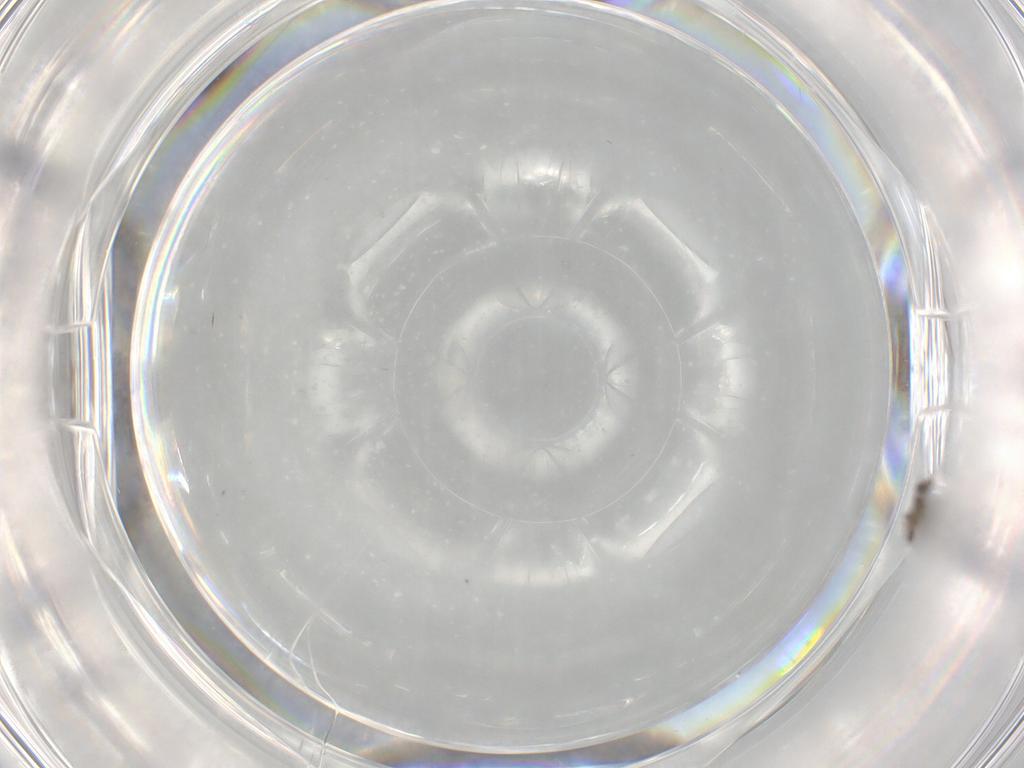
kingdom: Animalia
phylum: Arthropoda
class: Insecta
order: Hymenoptera
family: Trichogrammatidae
